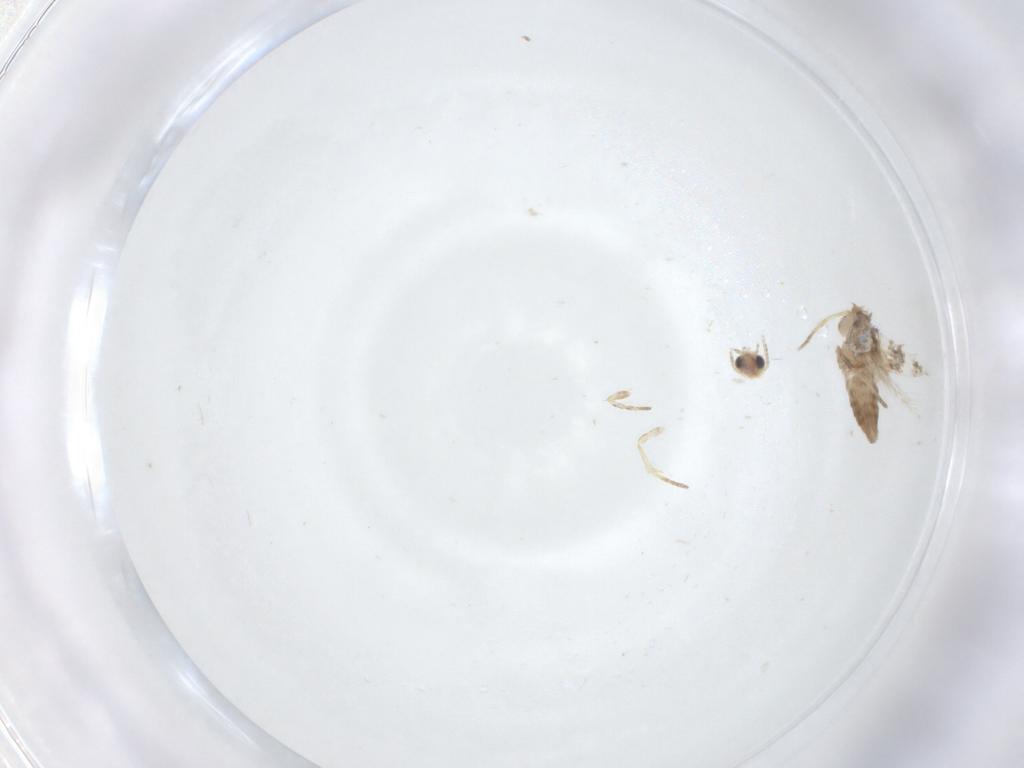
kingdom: Animalia
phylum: Arthropoda
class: Insecta
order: Lepidoptera
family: Nepticulidae
